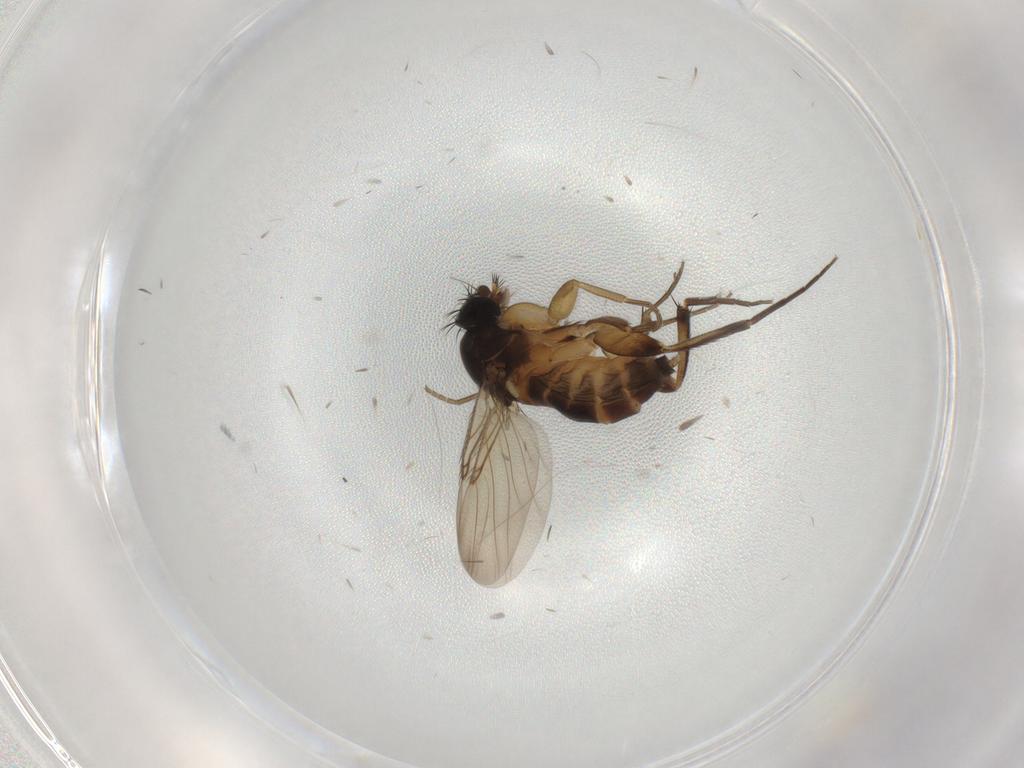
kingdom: Animalia
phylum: Arthropoda
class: Insecta
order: Diptera
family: Phoridae
